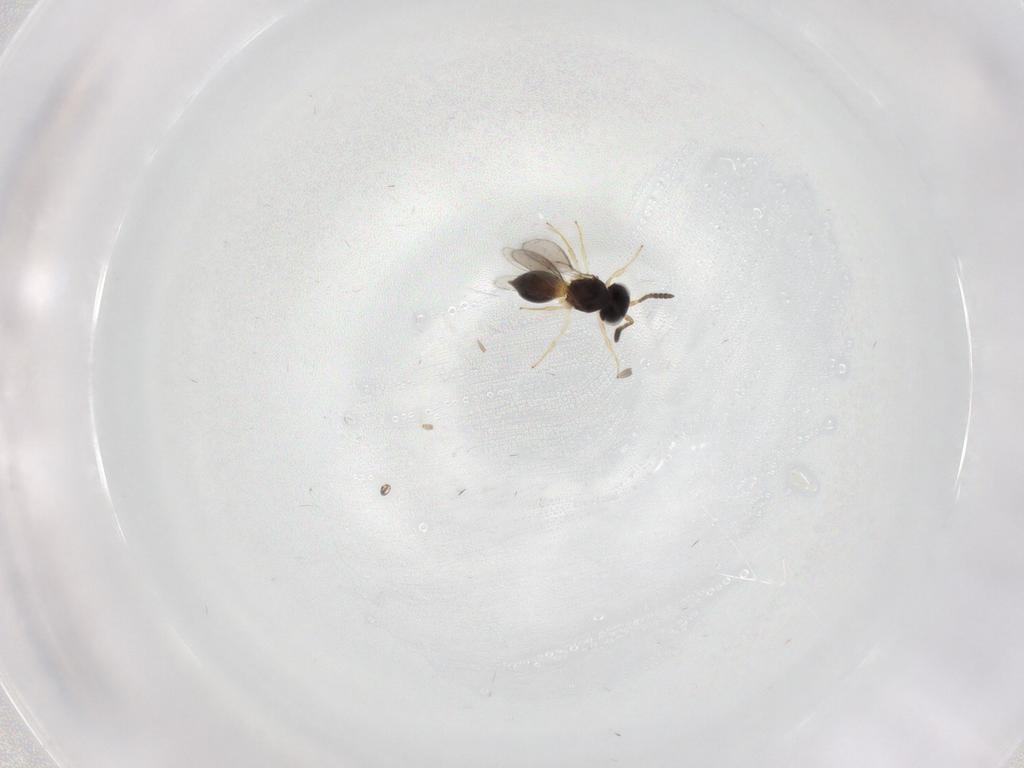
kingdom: Animalia
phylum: Arthropoda
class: Insecta
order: Hymenoptera
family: Scelionidae
